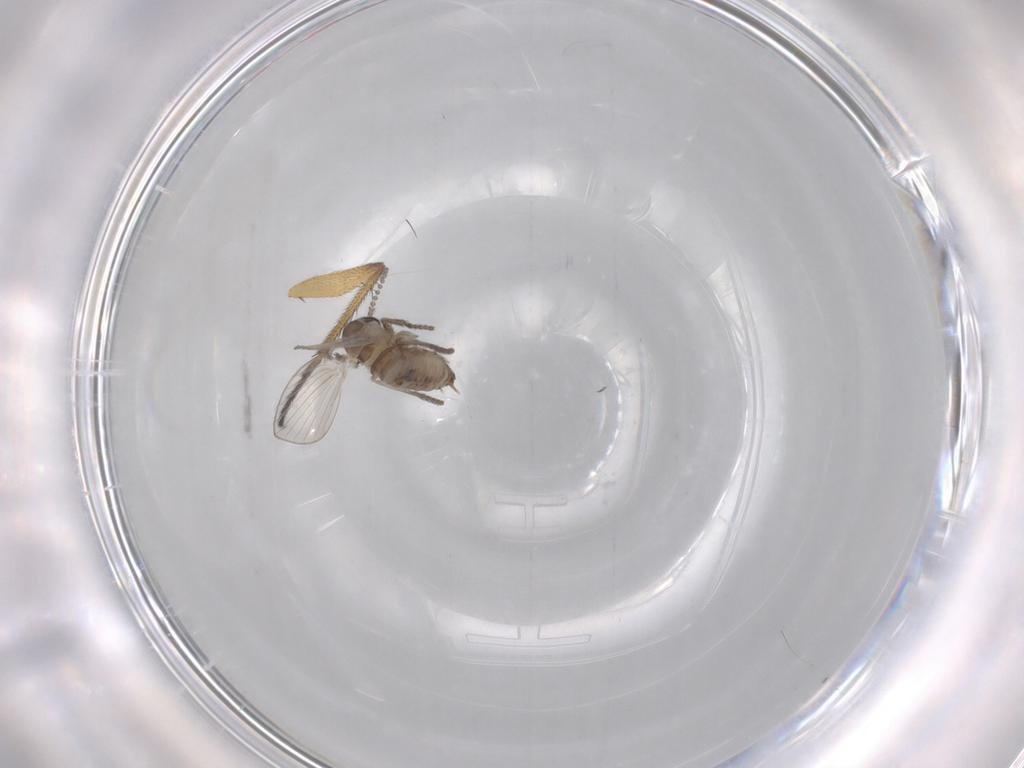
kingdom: Animalia
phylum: Arthropoda
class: Insecta
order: Diptera
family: Psychodidae
